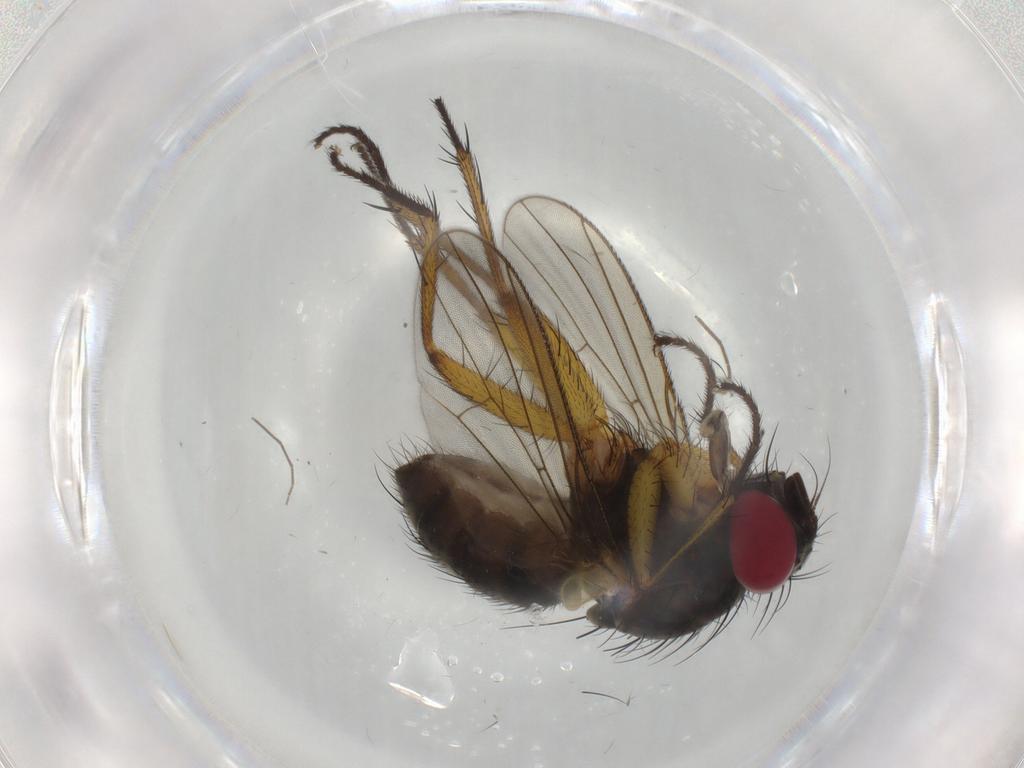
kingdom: Animalia
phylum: Arthropoda
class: Insecta
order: Diptera
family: Muscidae
